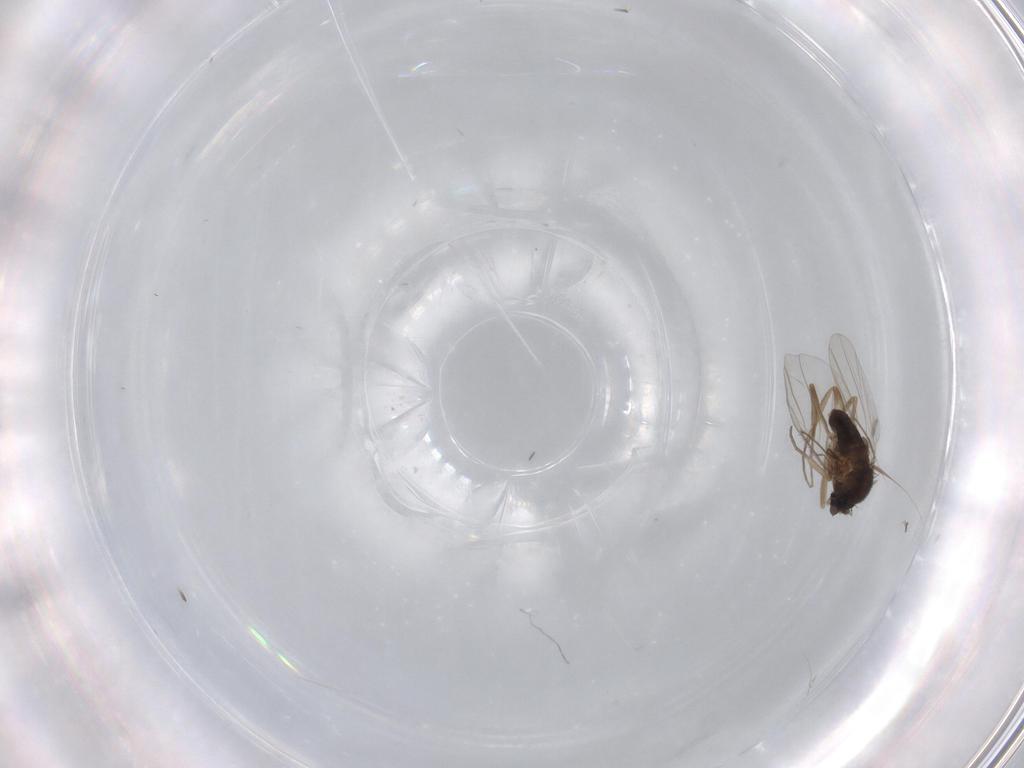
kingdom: Animalia
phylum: Arthropoda
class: Insecta
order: Diptera
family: Phoridae
